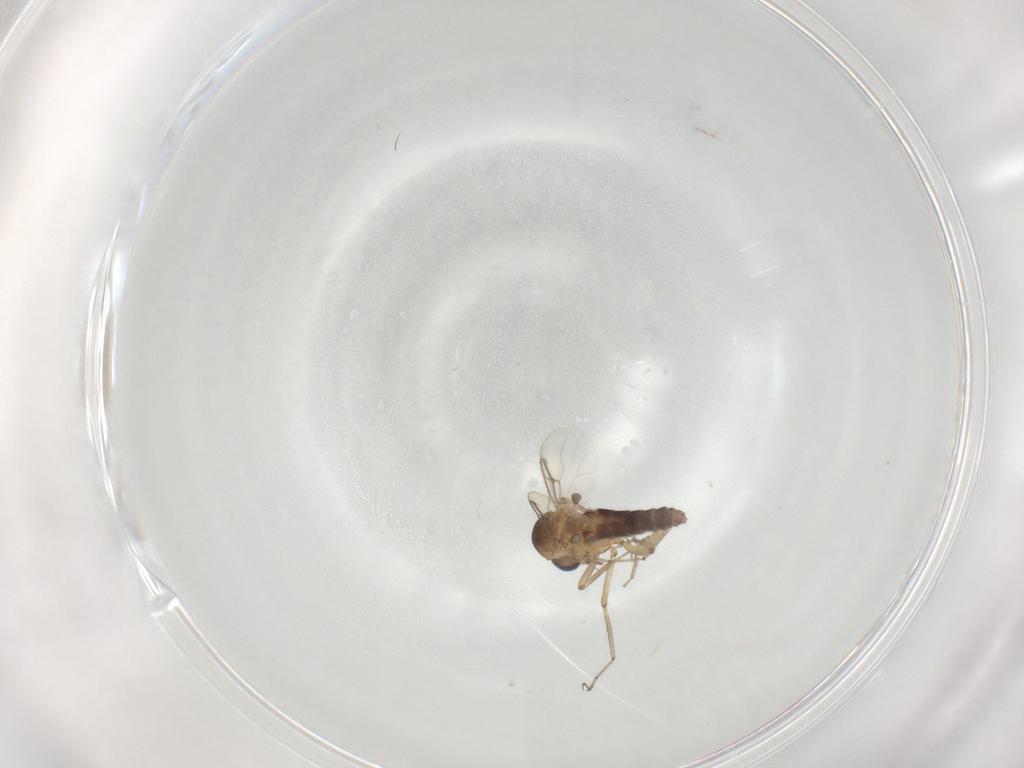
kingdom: Animalia
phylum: Arthropoda
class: Insecta
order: Diptera
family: Ceratopogonidae
